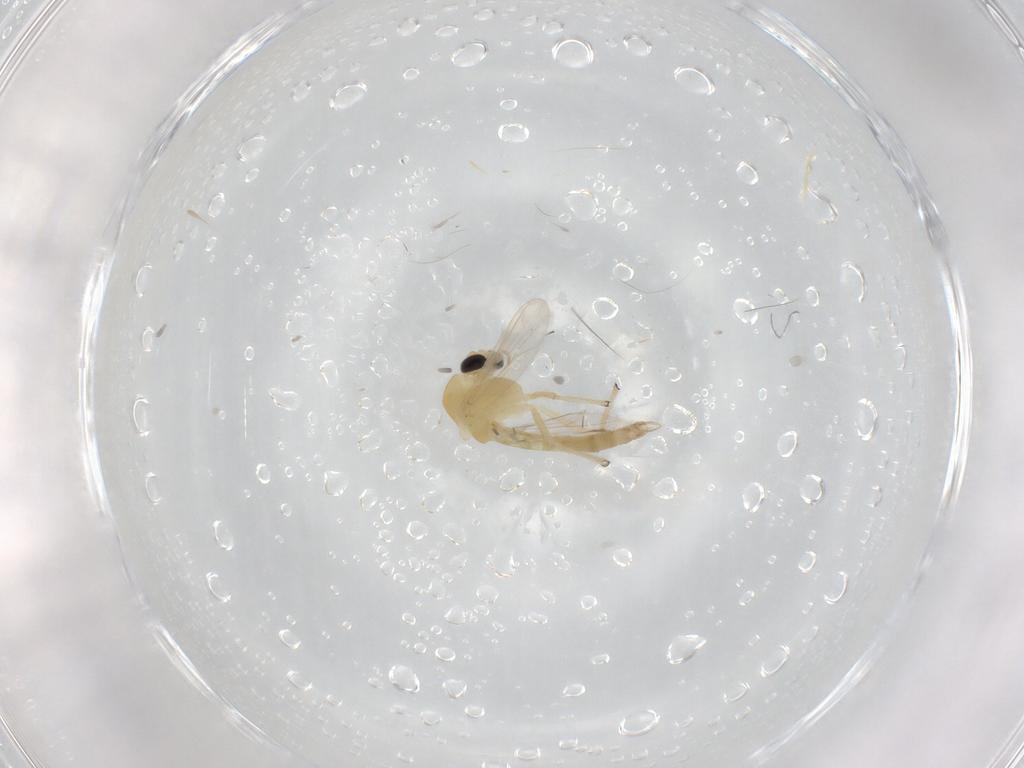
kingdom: Animalia
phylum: Arthropoda
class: Insecta
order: Diptera
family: Chironomidae
